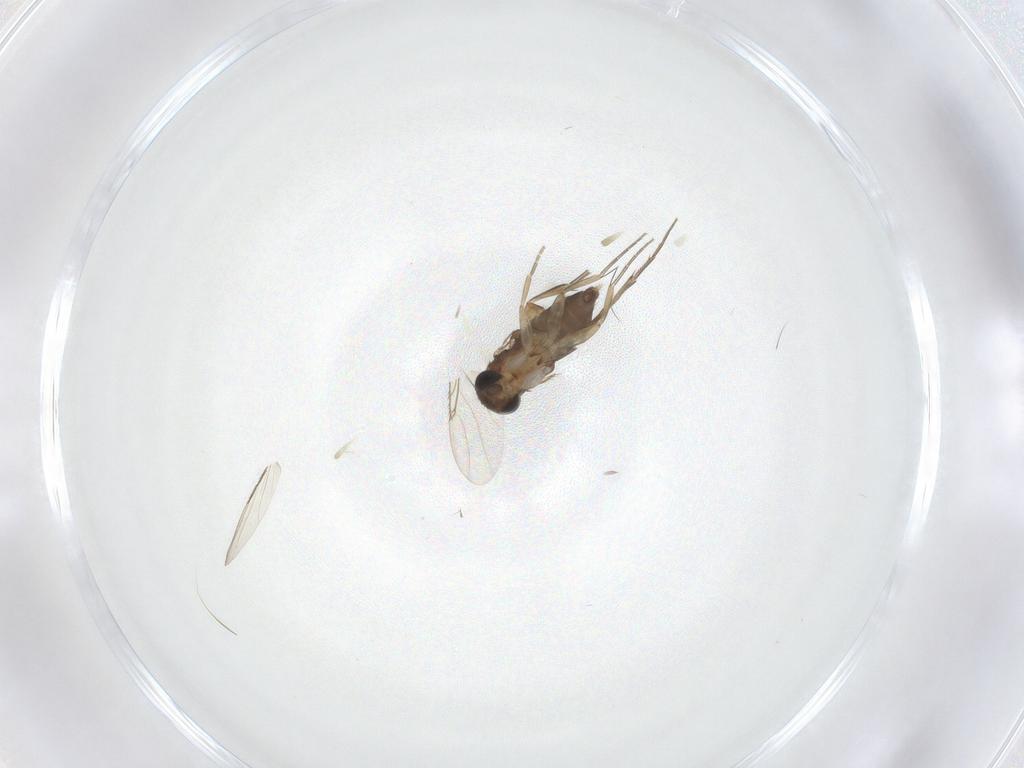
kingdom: Animalia
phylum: Arthropoda
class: Insecta
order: Diptera
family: Phoridae
